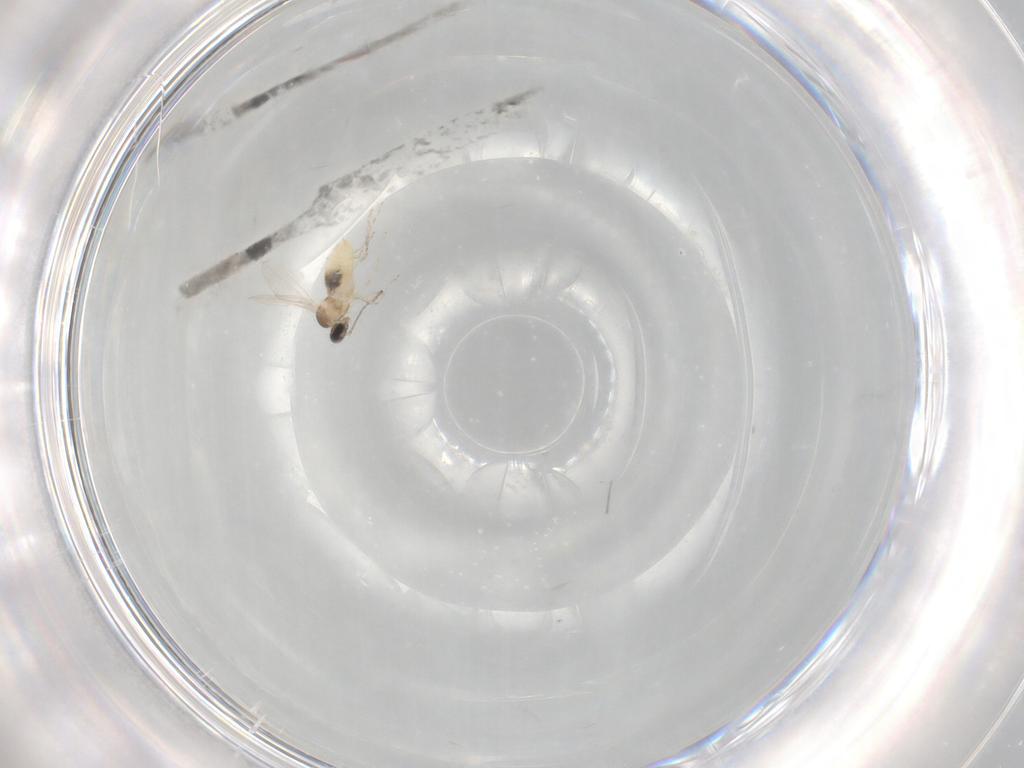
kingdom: Animalia
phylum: Arthropoda
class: Insecta
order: Diptera
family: Cecidomyiidae
